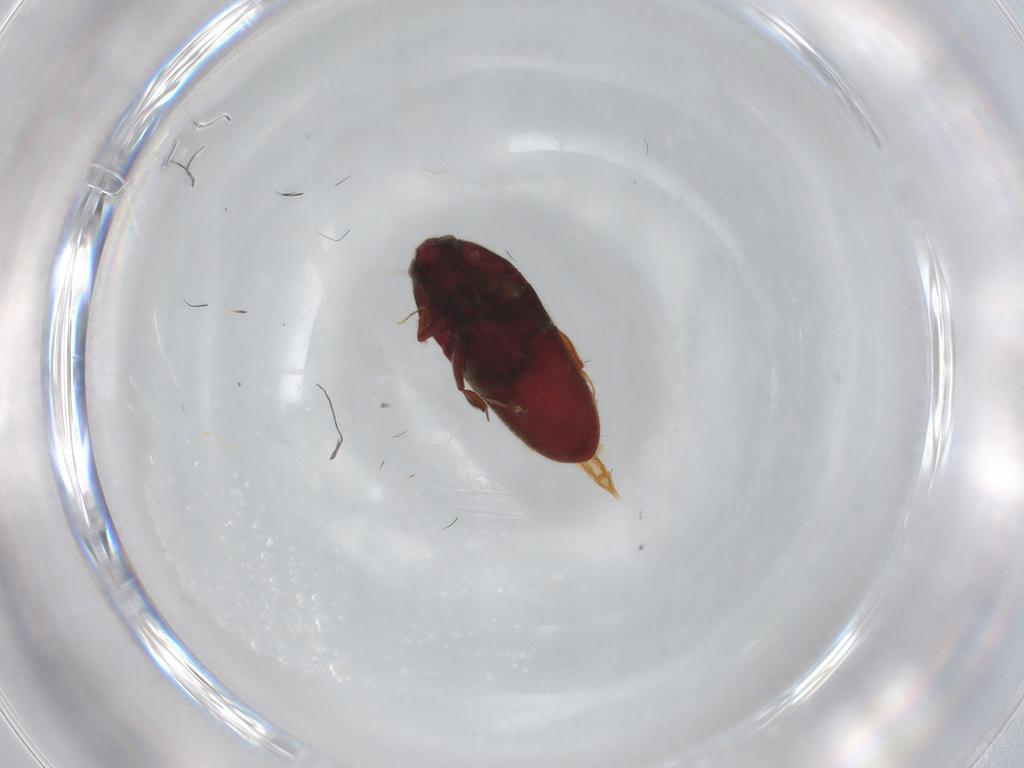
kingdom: Animalia
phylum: Arthropoda
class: Insecta
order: Coleoptera
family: Throscidae
